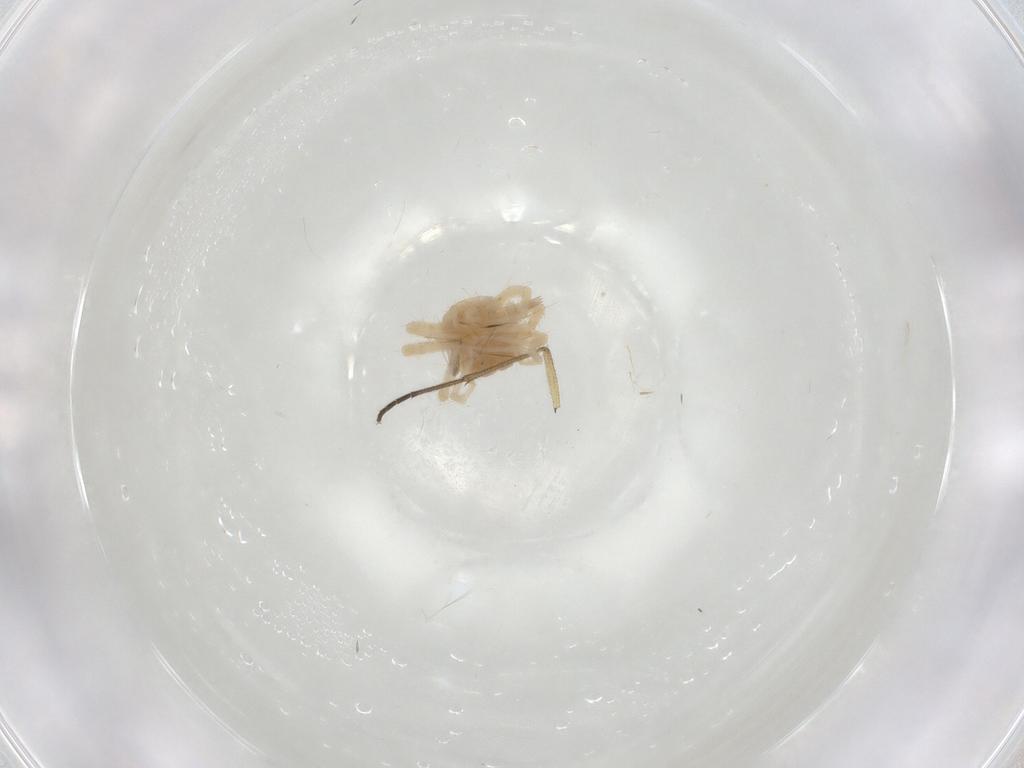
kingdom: Animalia
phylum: Arthropoda
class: Arachnida
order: Trombidiformes
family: Anystidae
